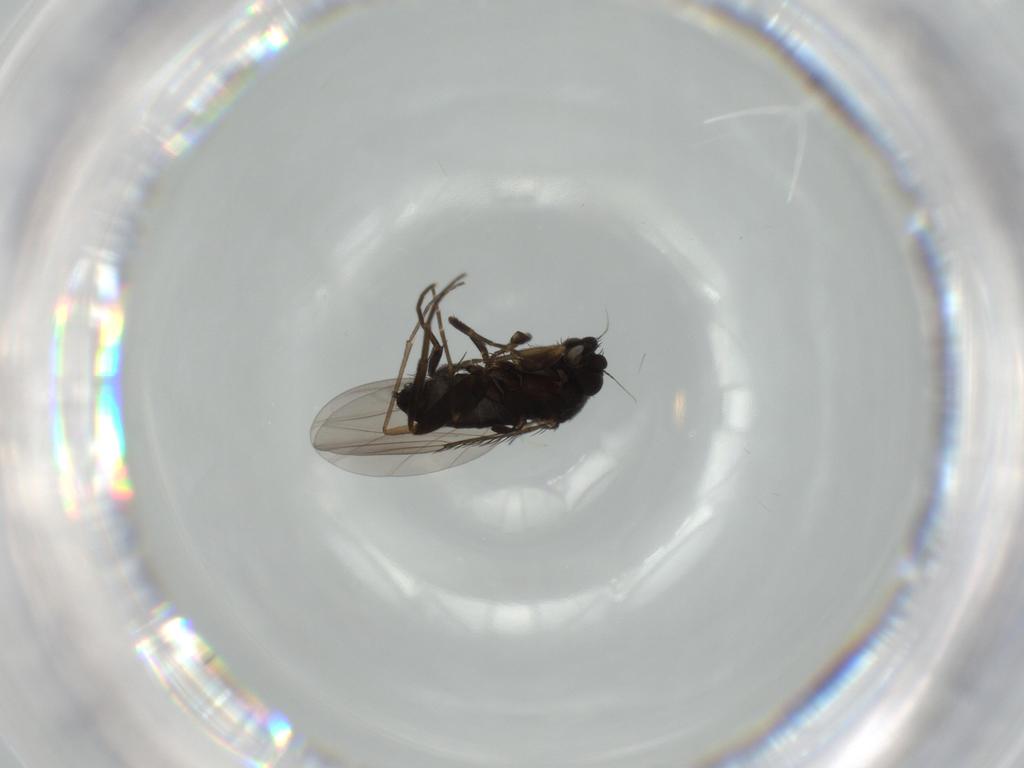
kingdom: Animalia
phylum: Arthropoda
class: Insecta
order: Diptera
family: Phoridae
